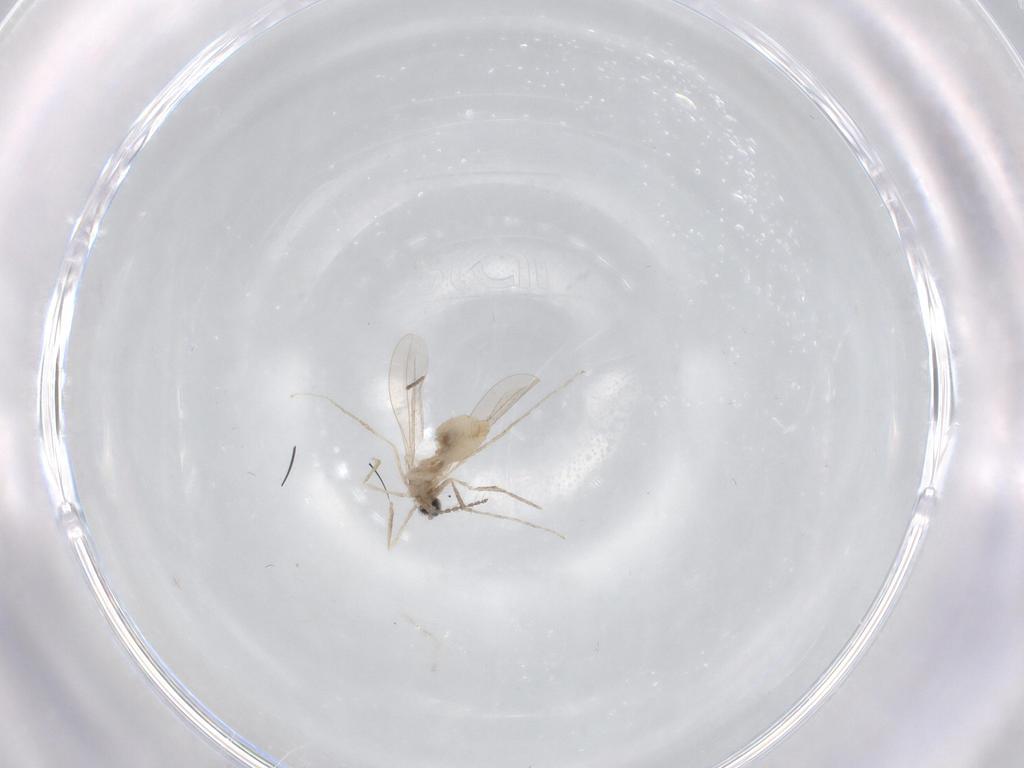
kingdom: Animalia
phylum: Arthropoda
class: Insecta
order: Diptera
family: Cecidomyiidae
